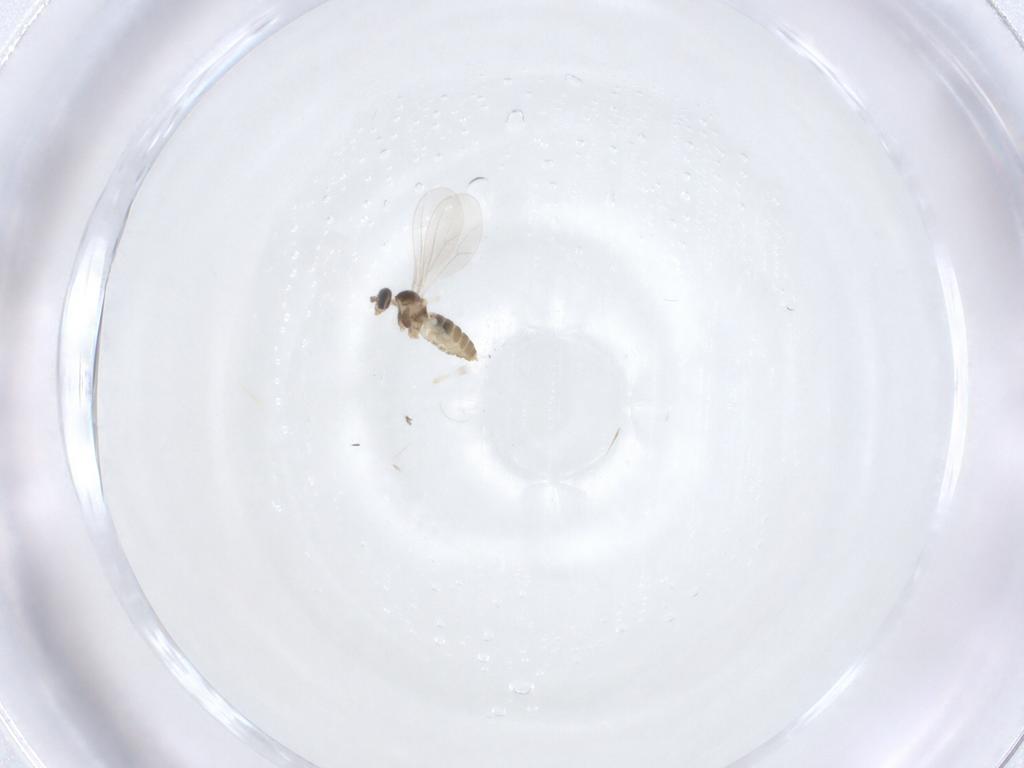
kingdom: Animalia
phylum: Arthropoda
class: Insecta
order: Diptera
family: Cecidomyiidae
